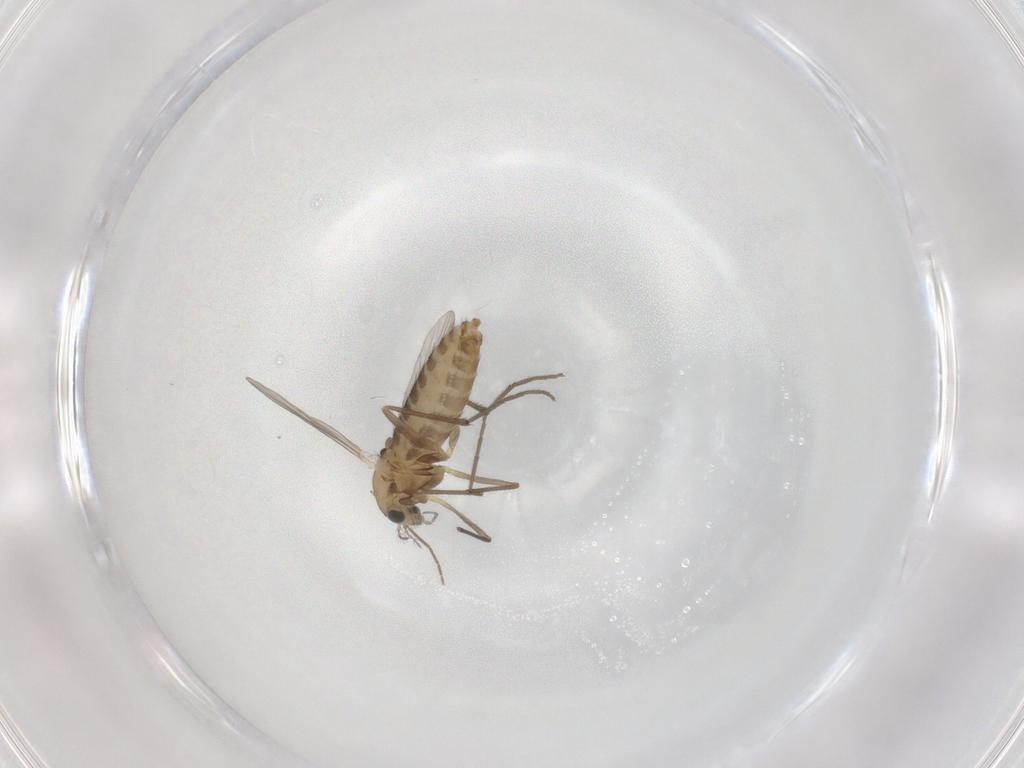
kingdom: Animalia
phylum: Arthropoda
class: Insecta
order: Diptera
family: Chironomidae
